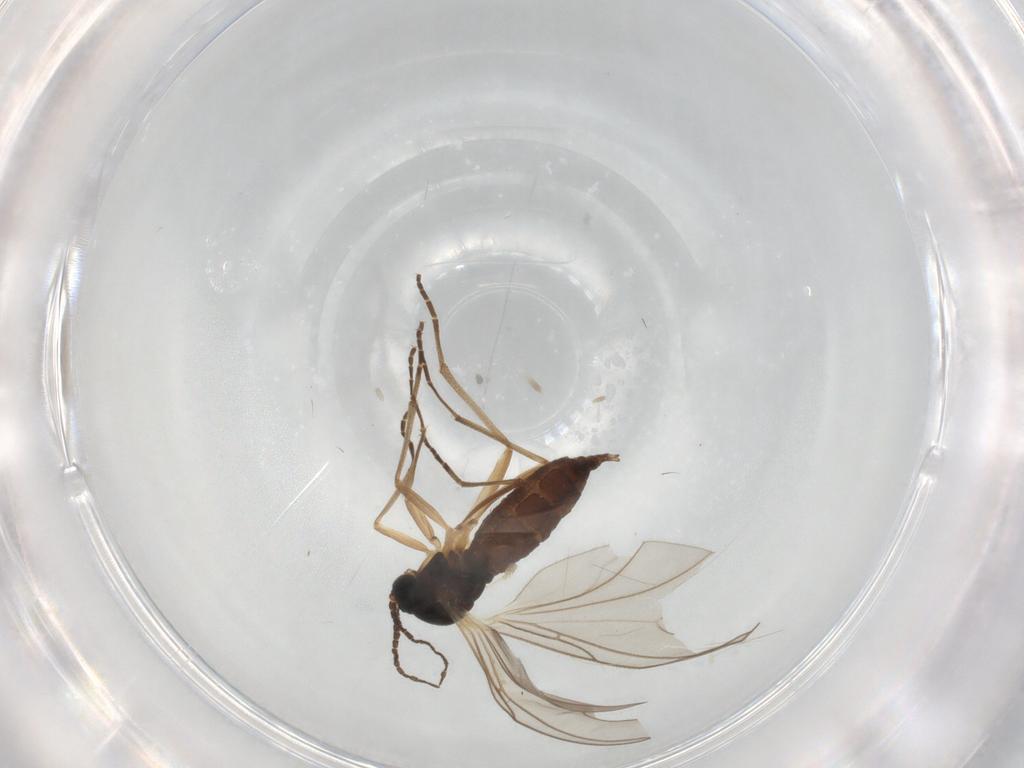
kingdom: Animalia
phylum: Arthropoda
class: Insecta
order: Diptera
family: Sciaridae
